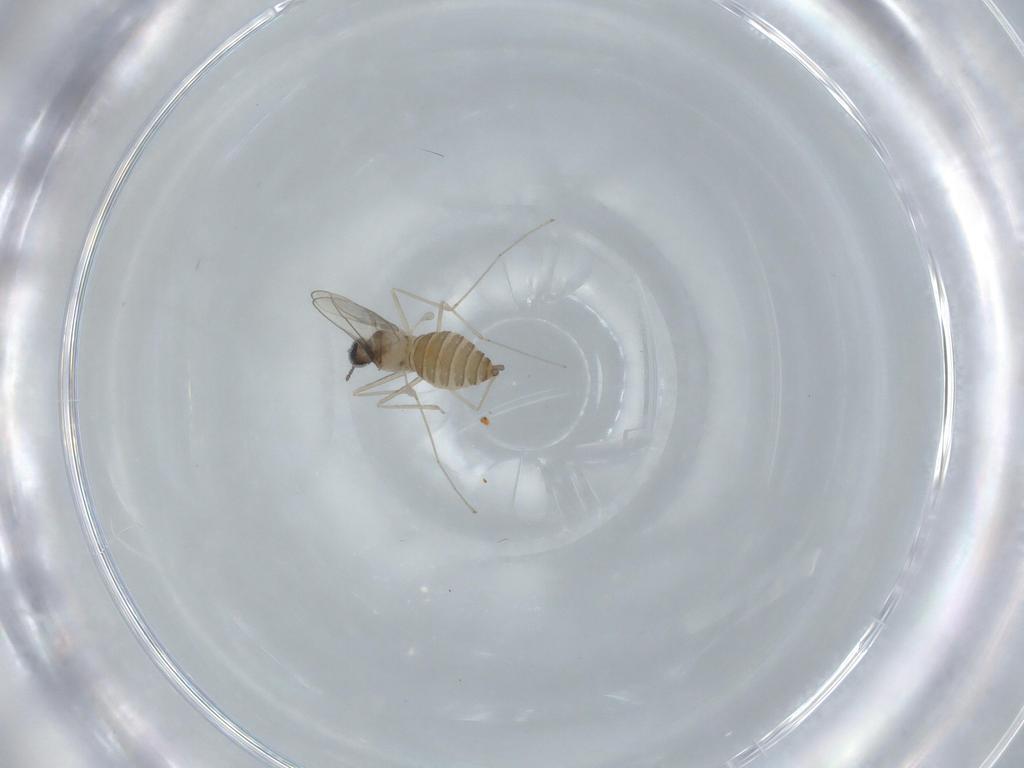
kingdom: Animalia
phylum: Arthropoda
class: Insecta
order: Diptera
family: Cecidomyiidae
